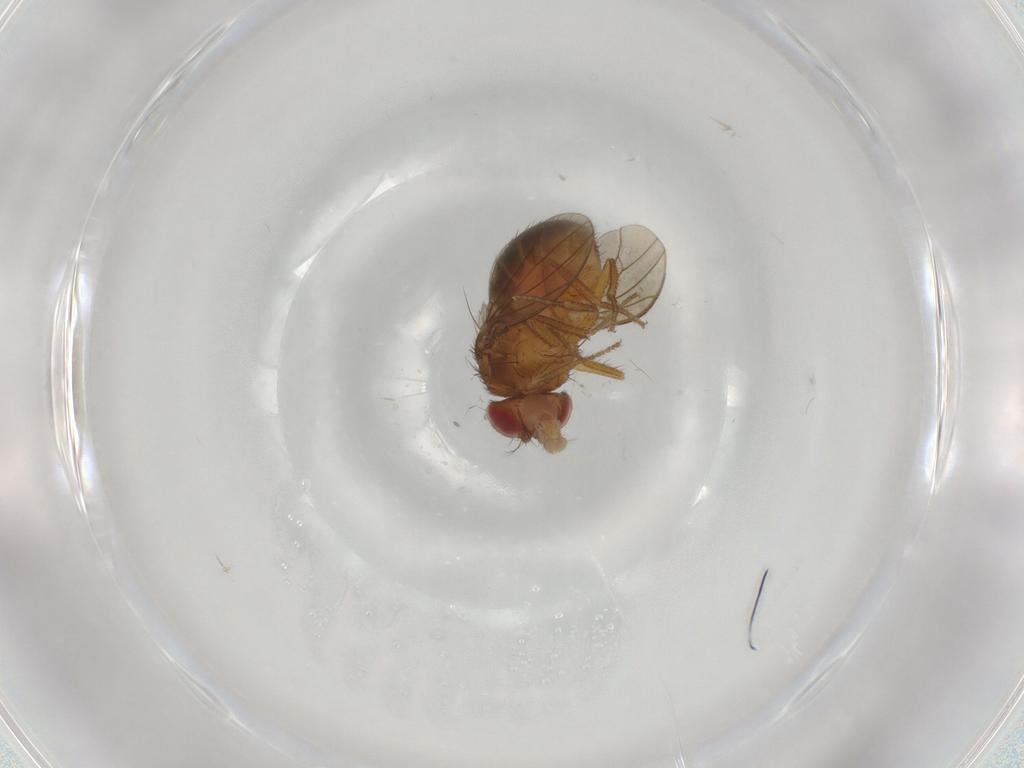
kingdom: Animalia
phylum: Arthropoda
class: Insecta
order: Diptera
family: Drosophilidae
